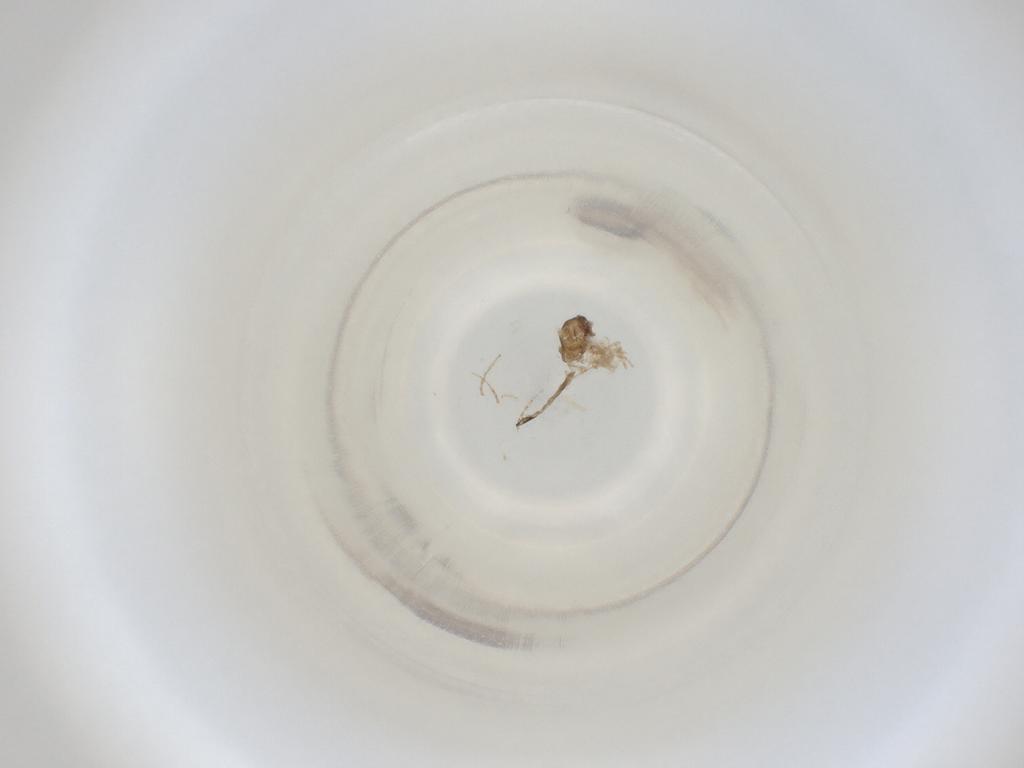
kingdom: Animalia
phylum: Arthropoda
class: Insecta
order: Diptera
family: Cecidomyiidae
